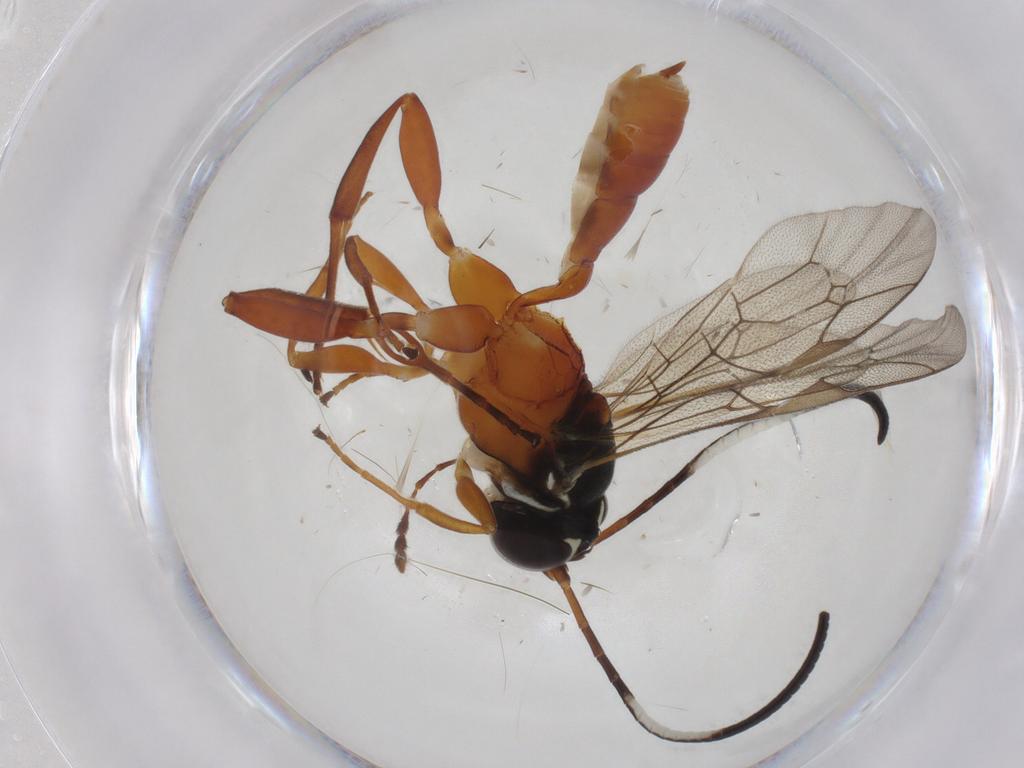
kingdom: Animalia
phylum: Arthropoda
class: Insecta
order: Hymenoptera
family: Ichneumonidae
